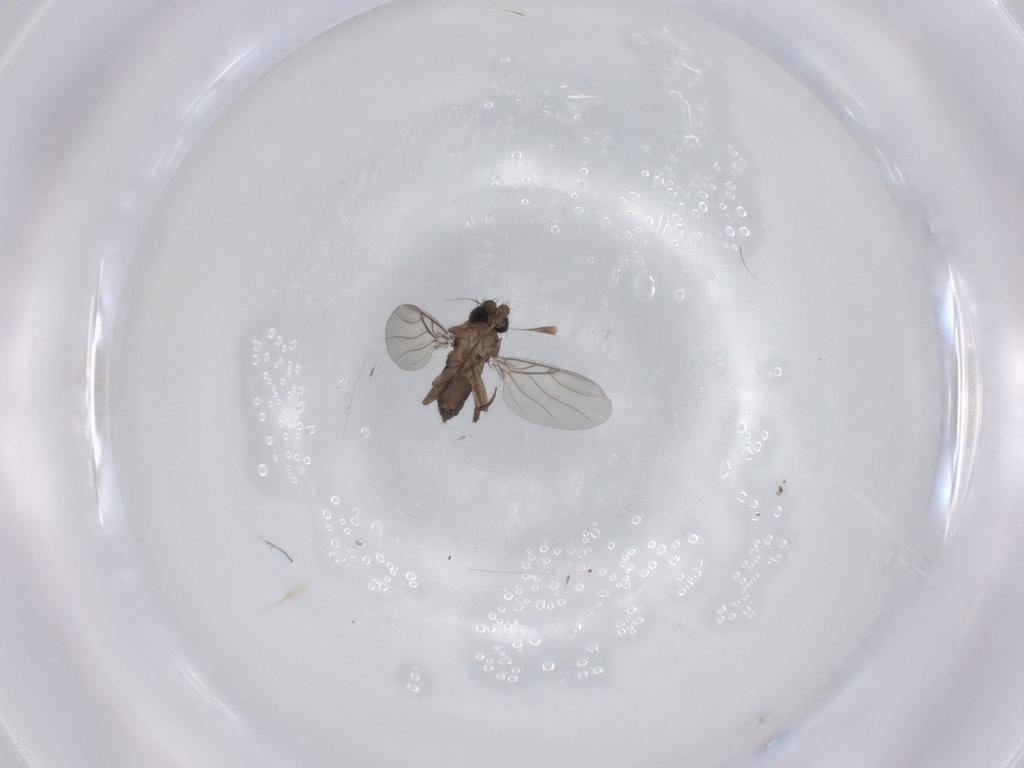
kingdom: Animalia
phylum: Arthropoda
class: Insecta
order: Diptera
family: Phoridae
